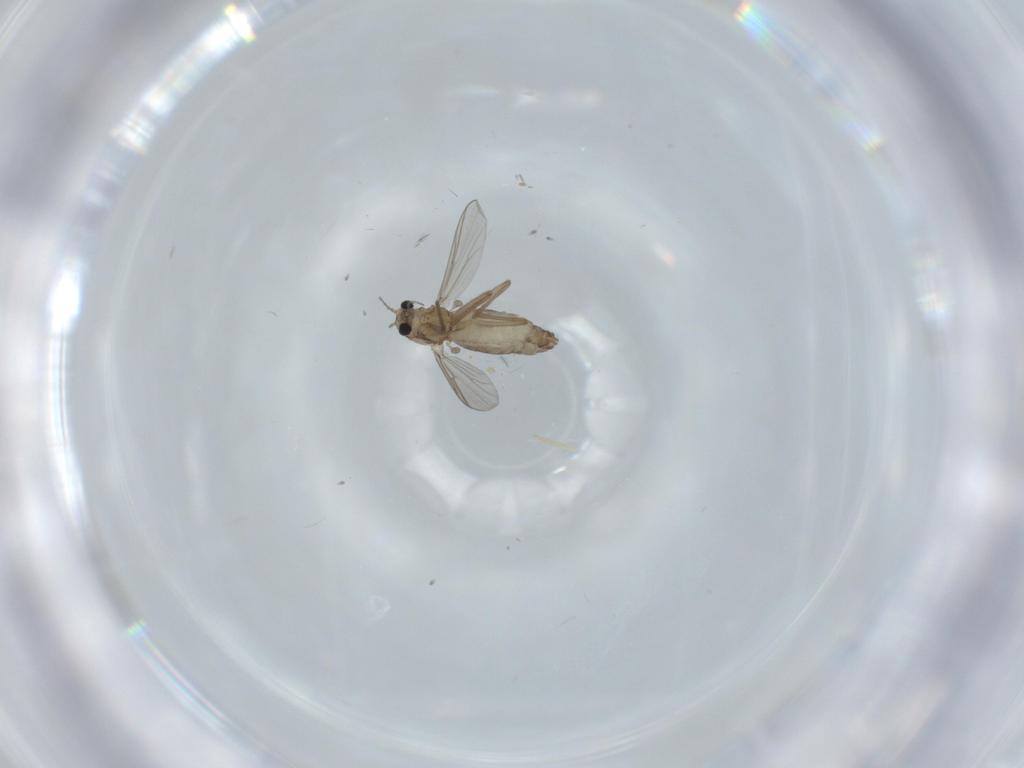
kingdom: Animalia
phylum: Arthropoda
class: Insecta
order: Diptera
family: Chironomidae
